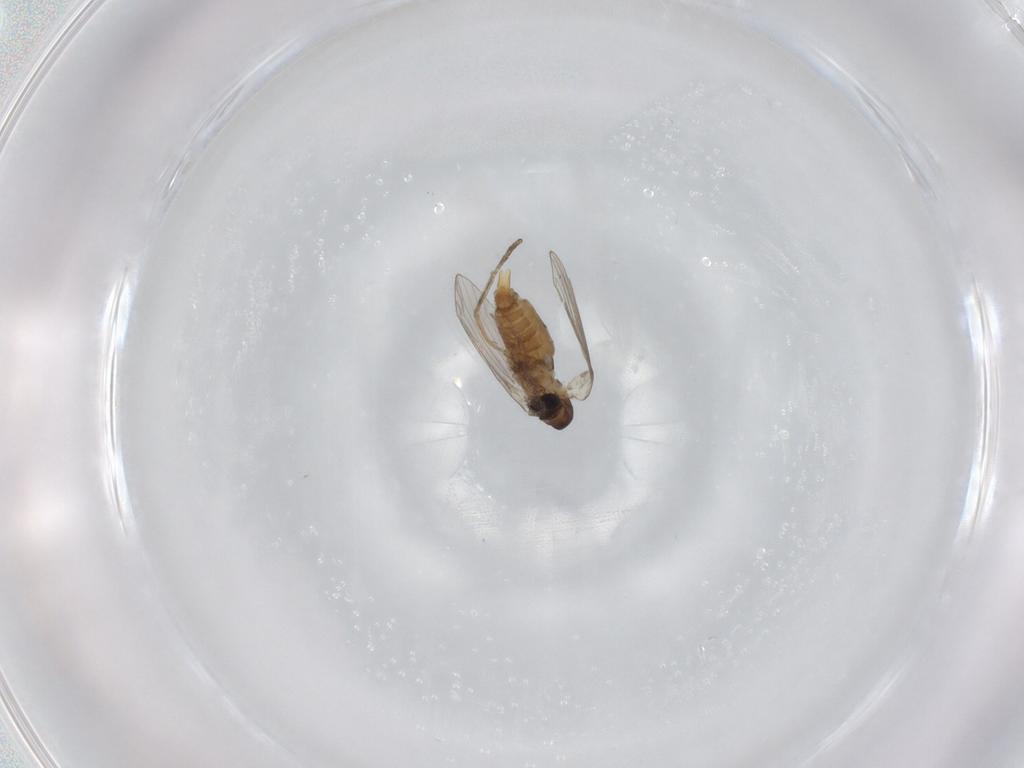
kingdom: Animalia
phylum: Arthropoda
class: Insecta
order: Diptera
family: Psychodidae
